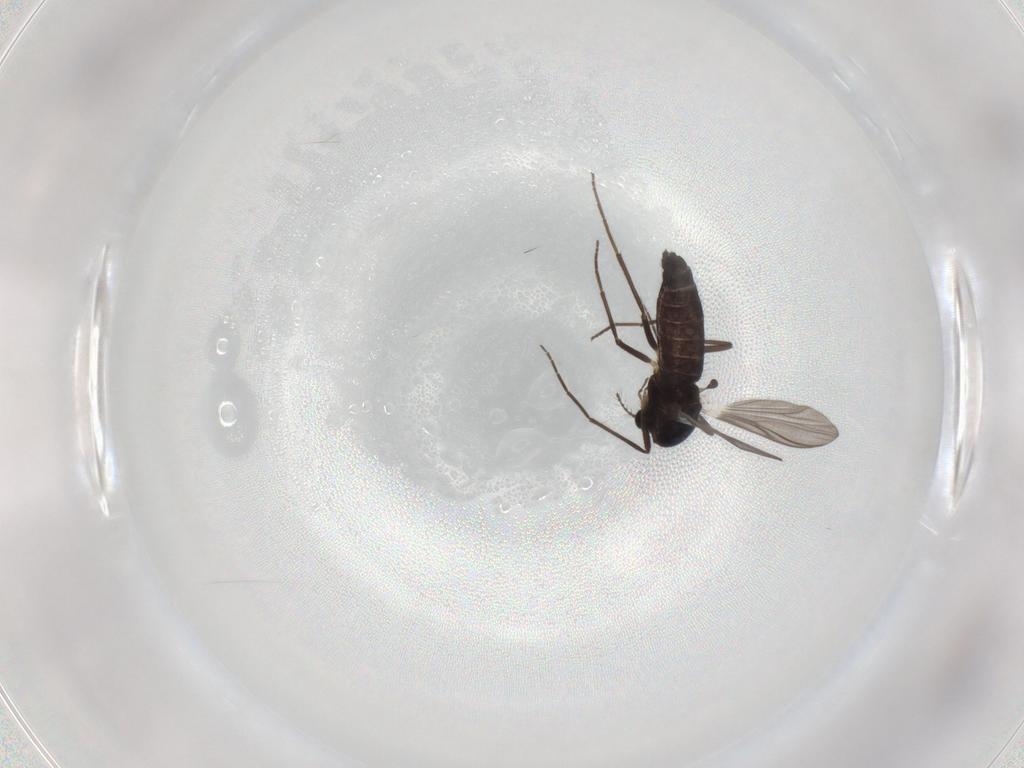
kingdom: Animalia
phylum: Arthropoda
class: Insecta
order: Diptera
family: Chironomidae
